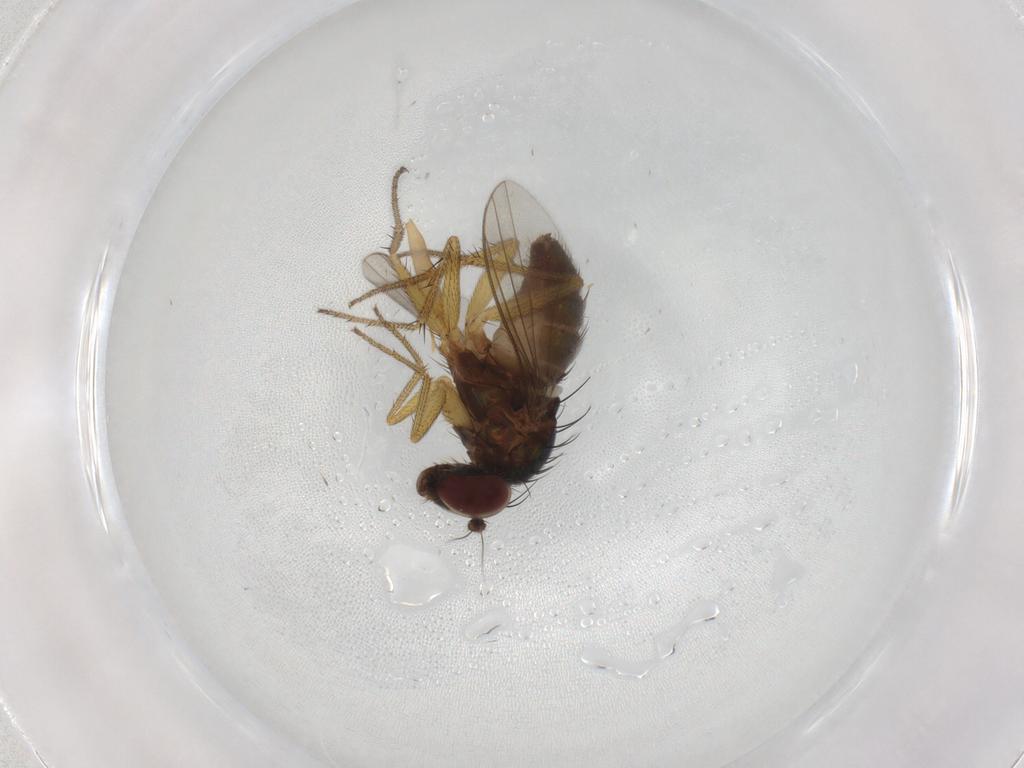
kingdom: Animalia
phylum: Arthropoda
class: Insecta
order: Diptera
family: Dolichopodidae
